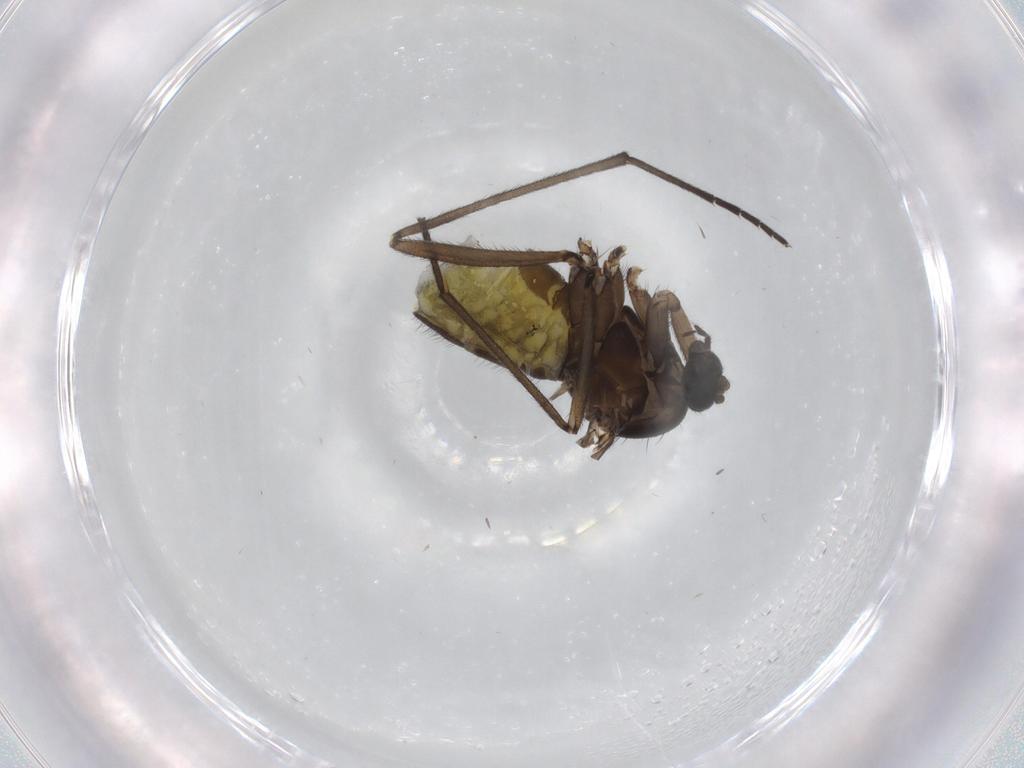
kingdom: Animalia
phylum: Arthropoda
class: Insecta
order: Diptera
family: Sciaridae
